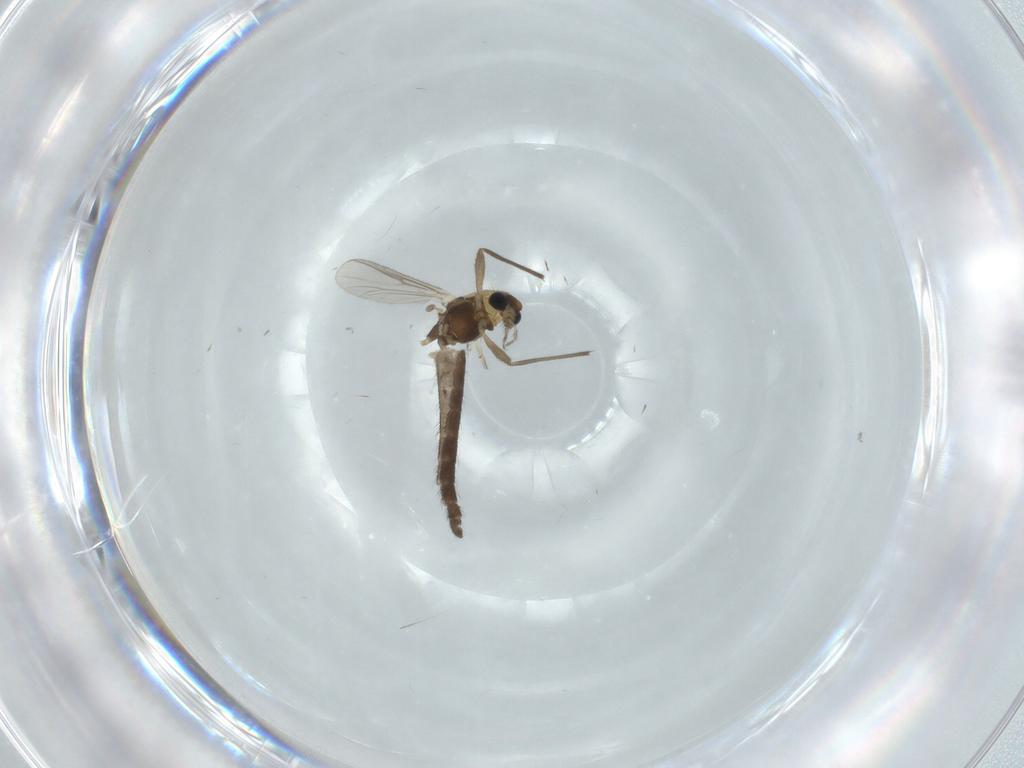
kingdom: Animalia
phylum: Arthropoda
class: Insecta
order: Diptera
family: Chironomidae
